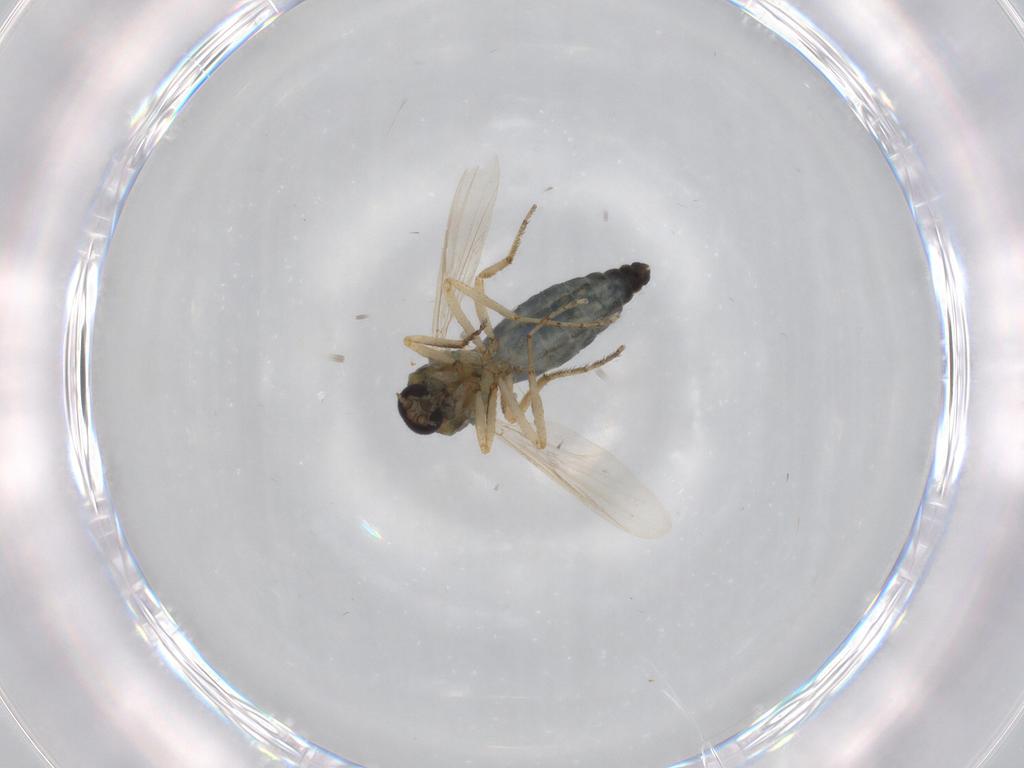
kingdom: Animalia
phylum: Arthropoda
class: Insecta
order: Diptera
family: Ceratopogonidae
